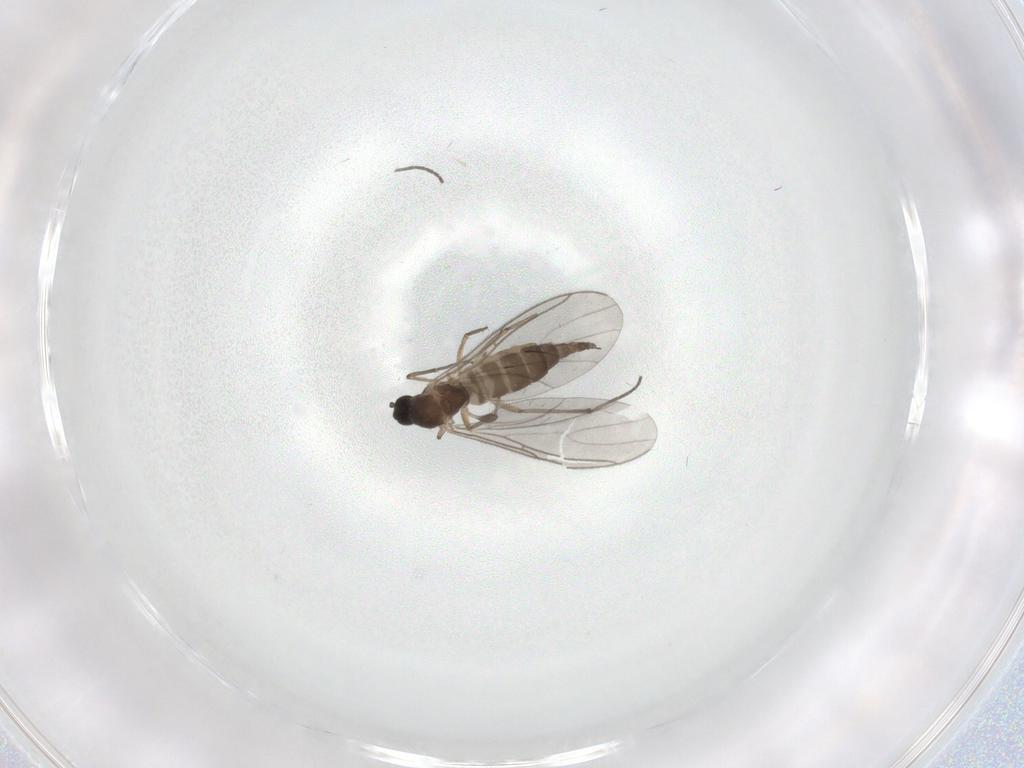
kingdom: Animalia
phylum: Arthropoda
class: Insecta
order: Diptera
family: Sciaridae
